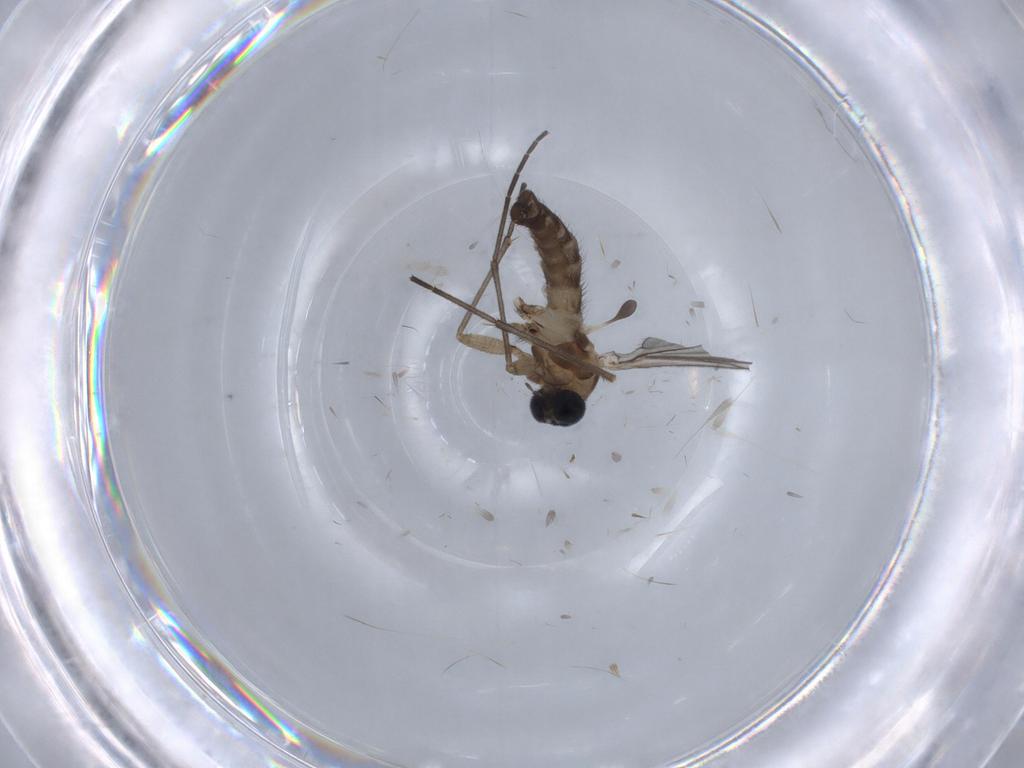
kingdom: Animalia
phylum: Arthropoda
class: Insecta
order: Diptera
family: Sciaridae
